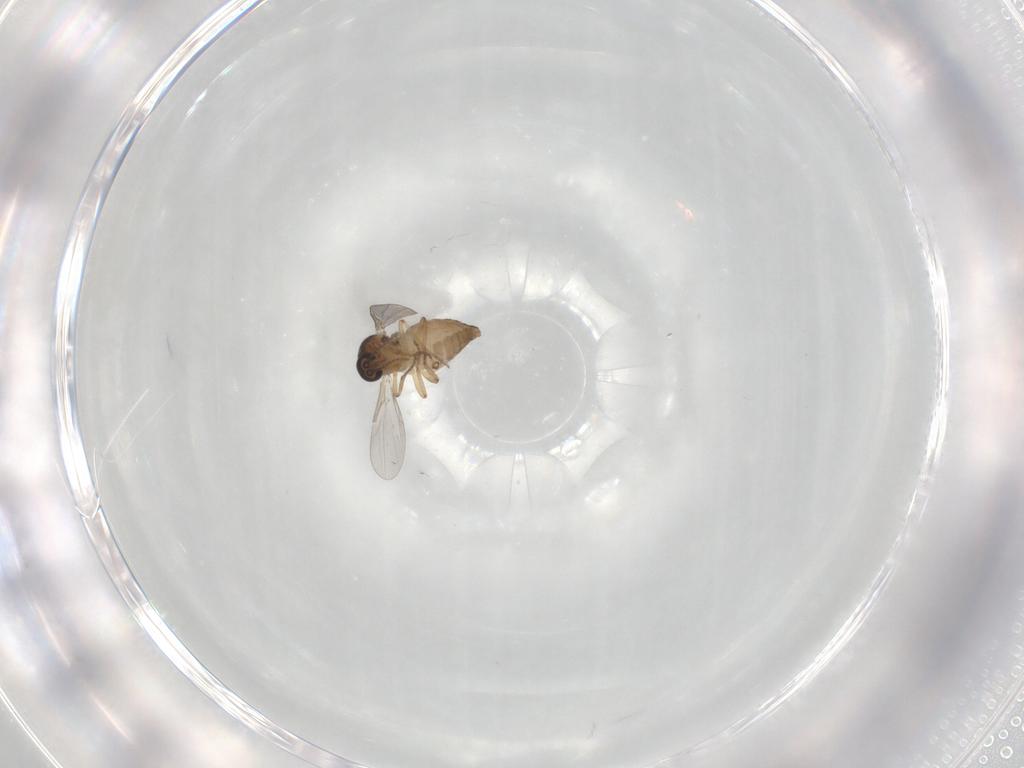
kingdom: Animalia
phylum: Arthropoda
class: Insecta
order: Diptera
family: Phoridae
